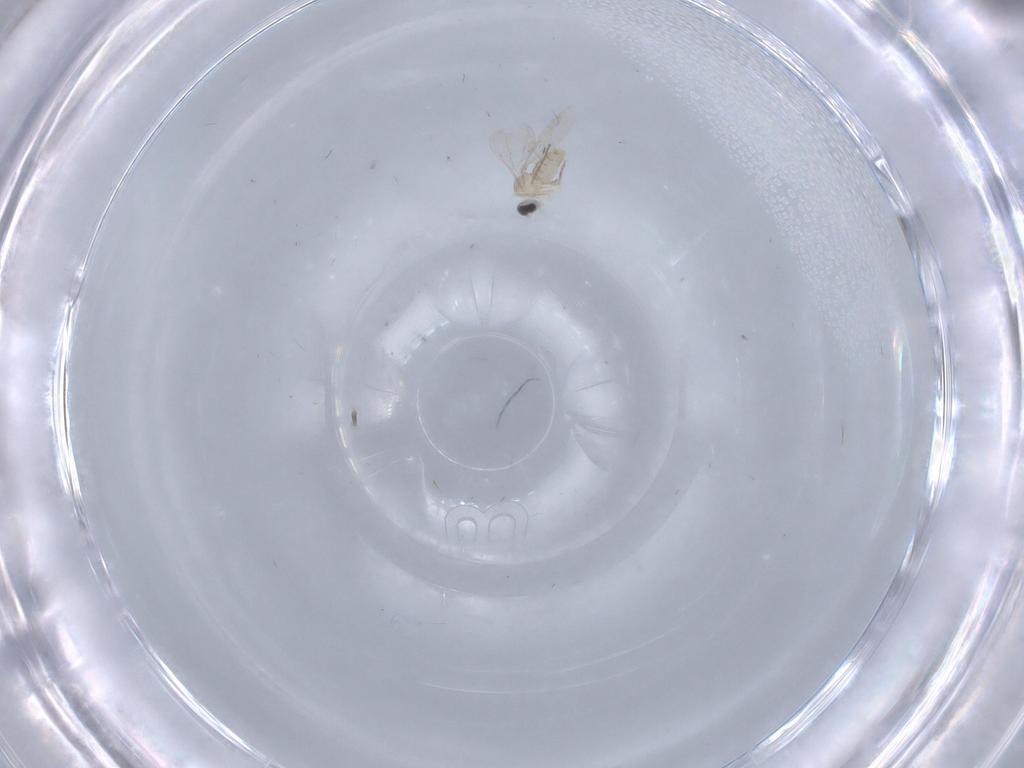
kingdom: Animalia
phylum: Arthropoda
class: Insecta
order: Diptera
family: Cecidomyiidae
